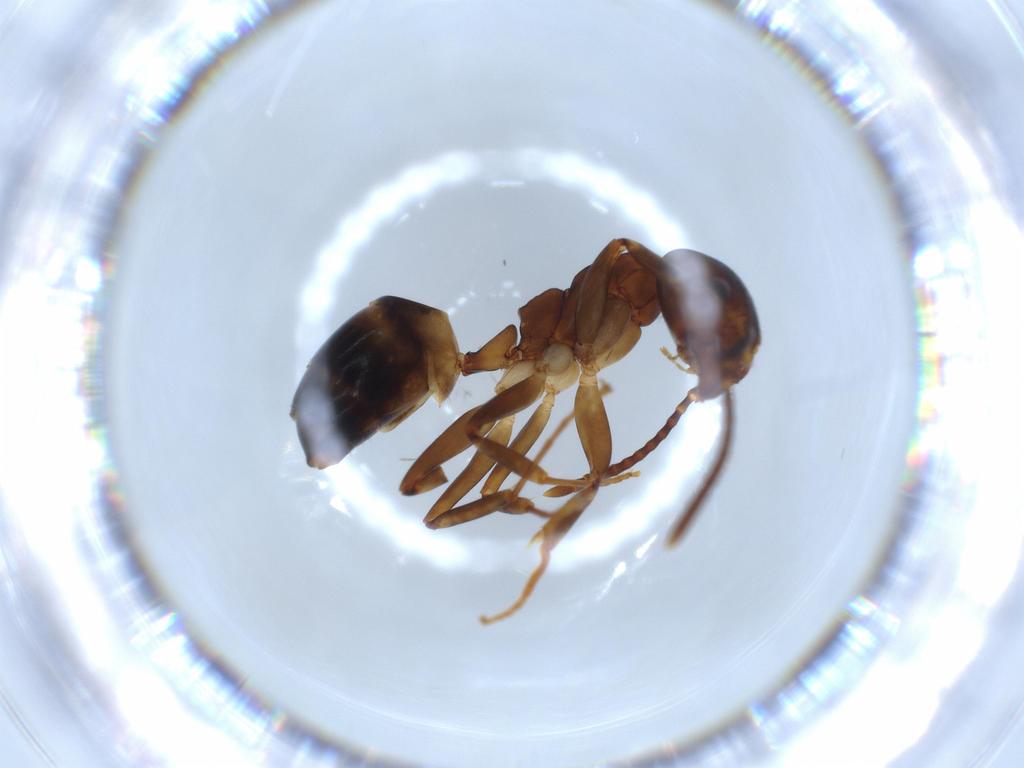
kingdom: Animalia
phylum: Arthropoda
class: Insecta
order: Hymenoptera
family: Formicidae
